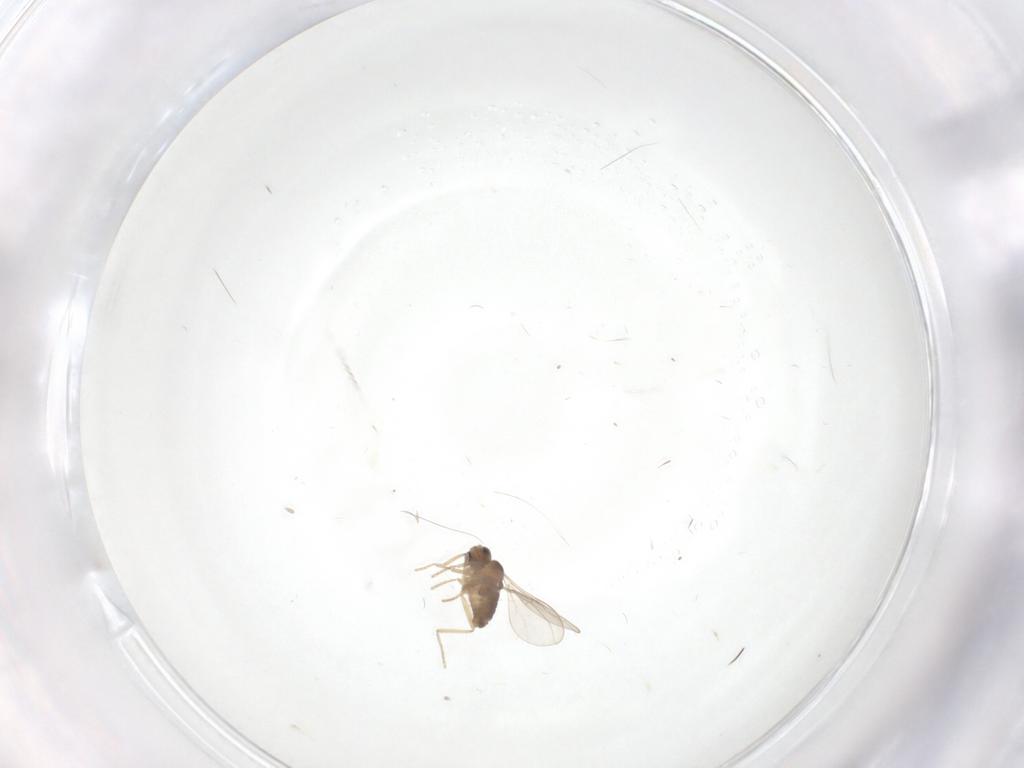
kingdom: Animalia
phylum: Arthropoda
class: Insecta
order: Diptera
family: Cecidomyiidae
